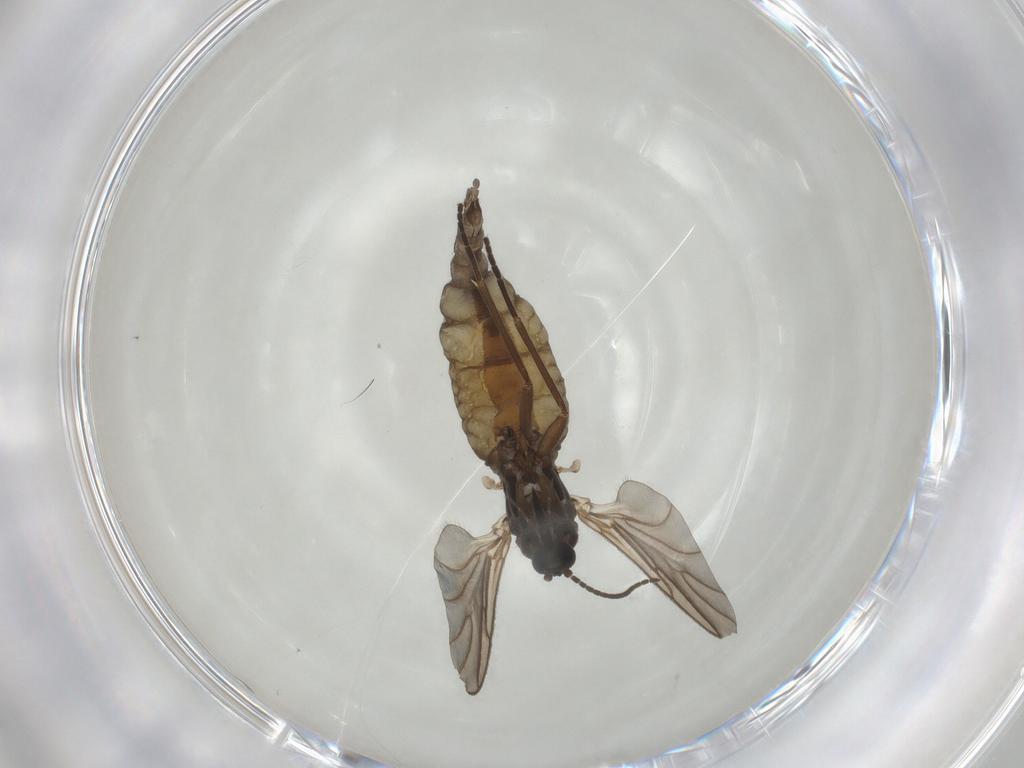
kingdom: Animalia
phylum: Arthropoda
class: Insecta
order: Diptera
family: Sciaridae
